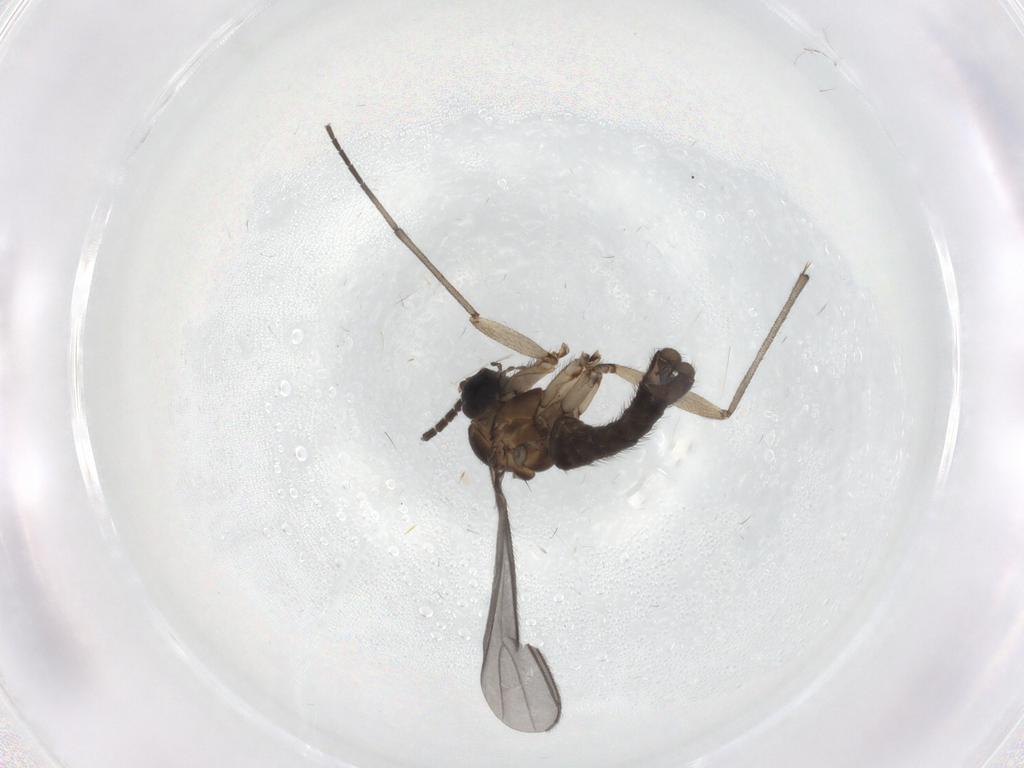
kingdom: Animalia
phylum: Arthropoda
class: Insecta
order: Diptera
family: Sciaridae
